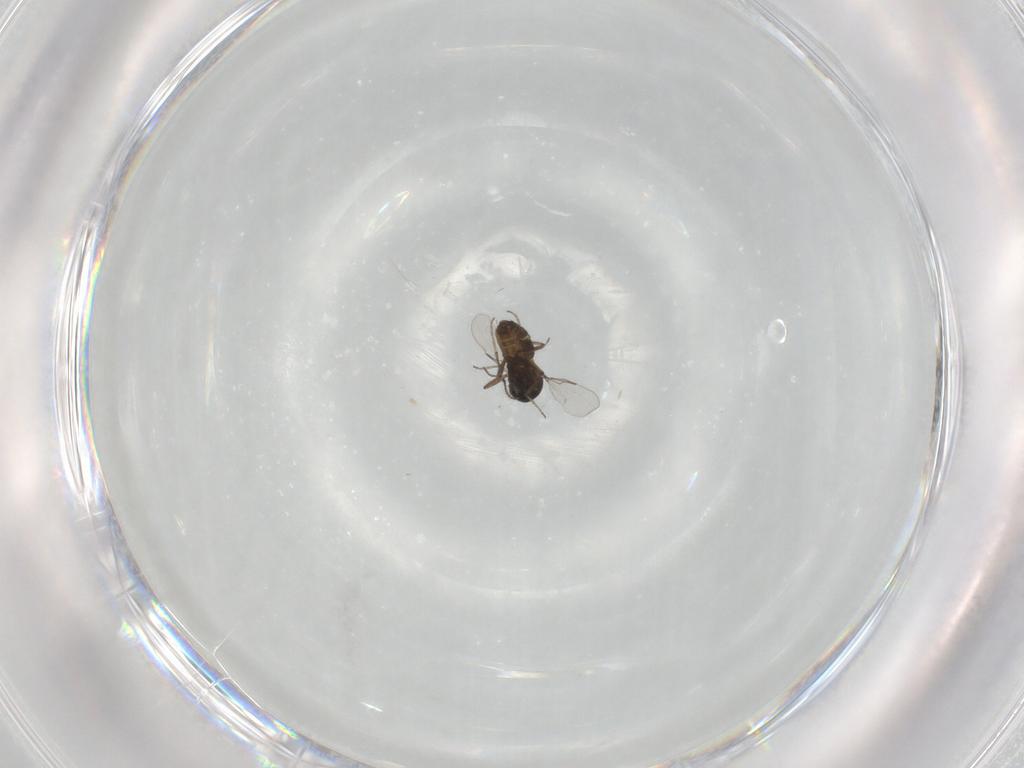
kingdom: Animalia
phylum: Arthropoda
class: Insecta
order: Diptera
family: Ceratopogonidae
